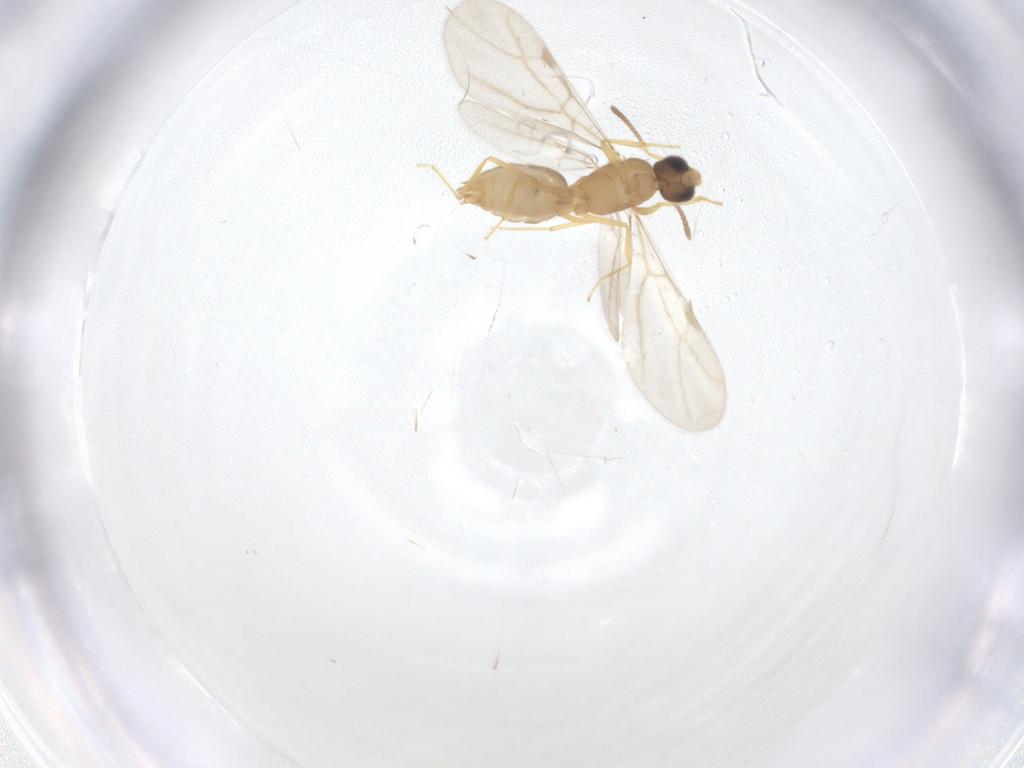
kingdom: Animalia
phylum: Arthropoda
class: Insecta
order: Hymenoptera
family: Formicidae
